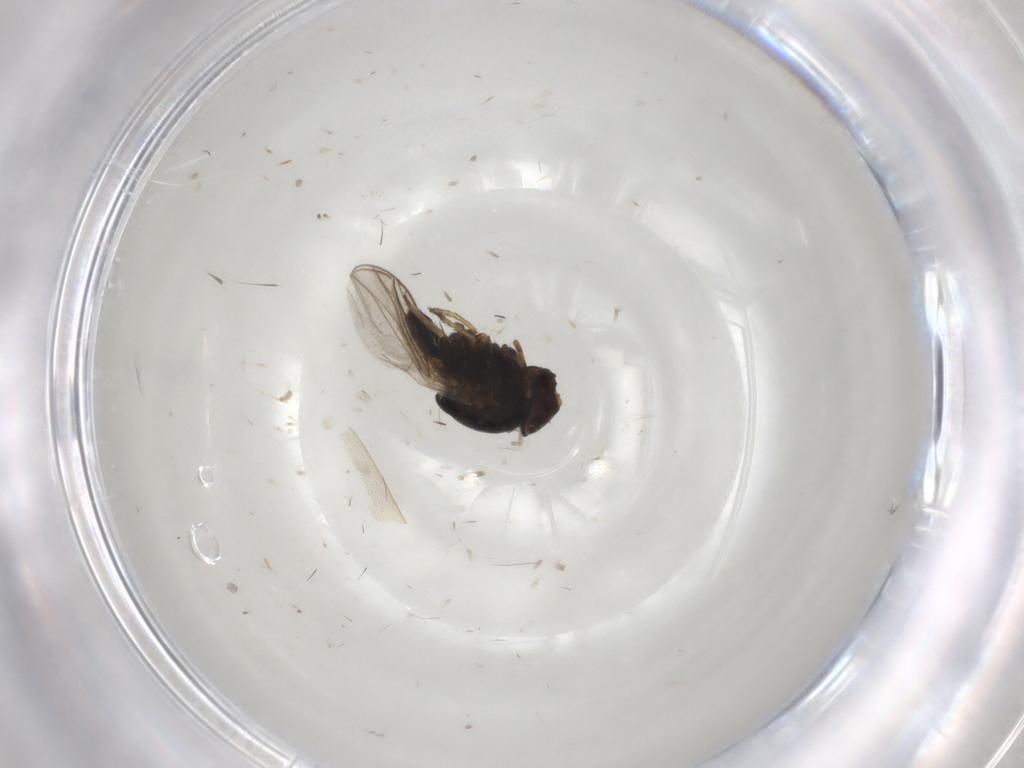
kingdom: Animalia
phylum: Arthropoda
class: Insecta
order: Diptera
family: Chloropidae
